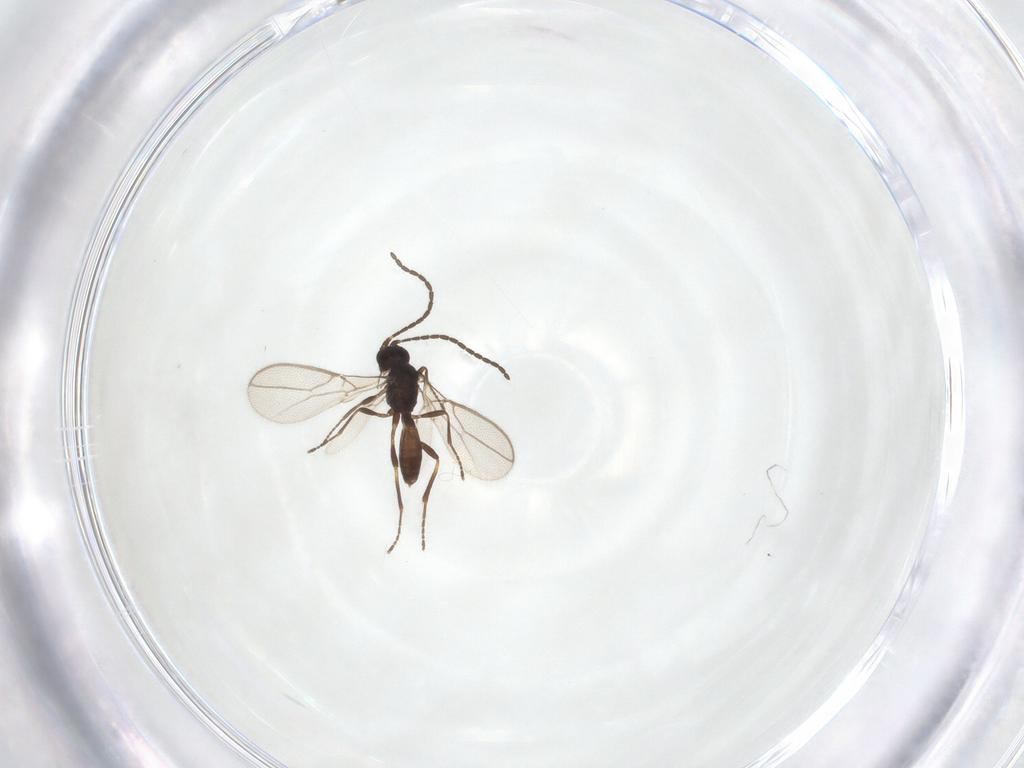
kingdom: Animalia
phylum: Arthropoda
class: Insecta
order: Hymenoptera
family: Braconidae
